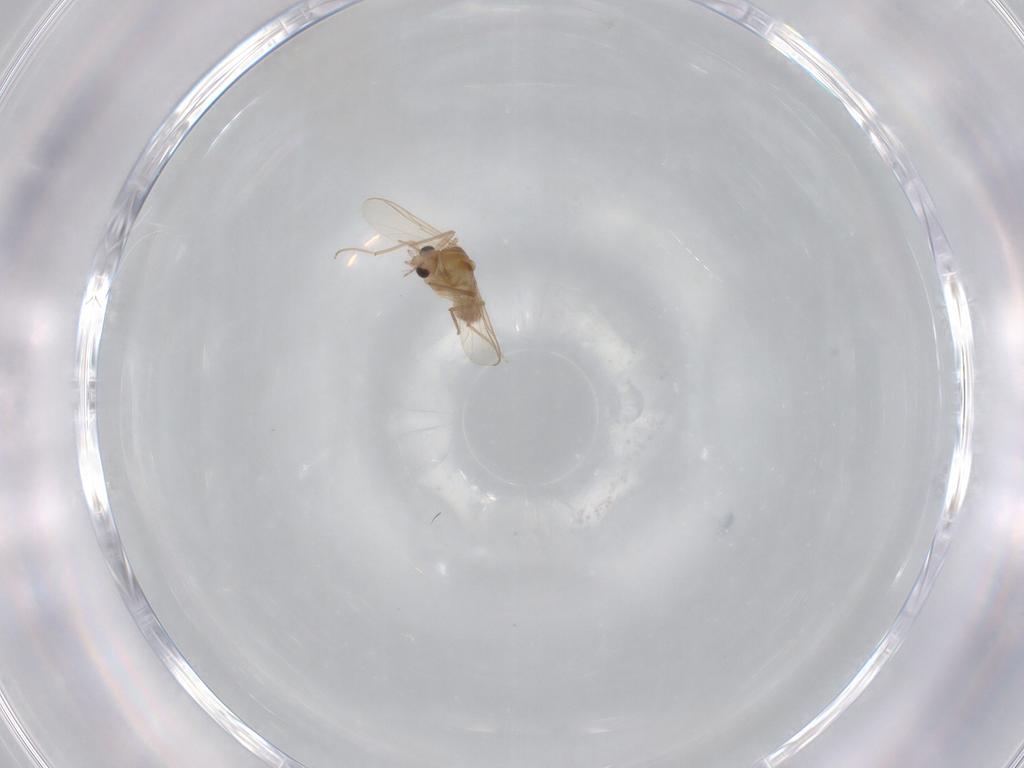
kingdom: Animalia
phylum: Arthropoda
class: Insecta
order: Diptera
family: Chironomidae
